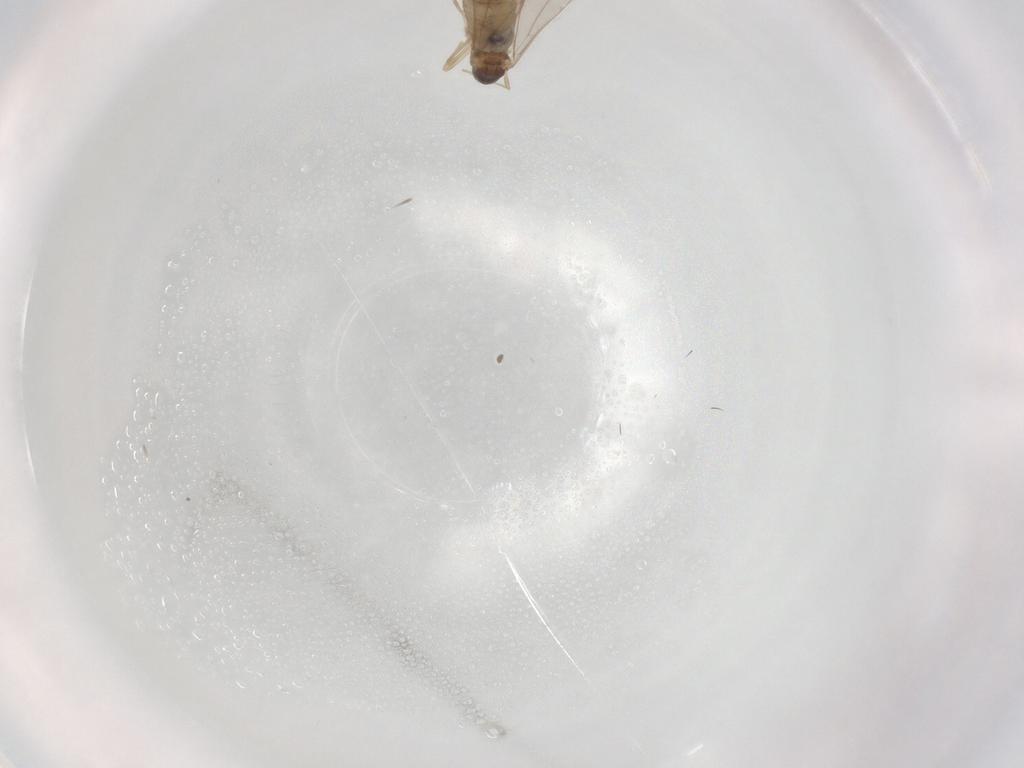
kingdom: Animalia
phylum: Arthropoda
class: Insecta
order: Diptera
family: Cecidomyiidae
